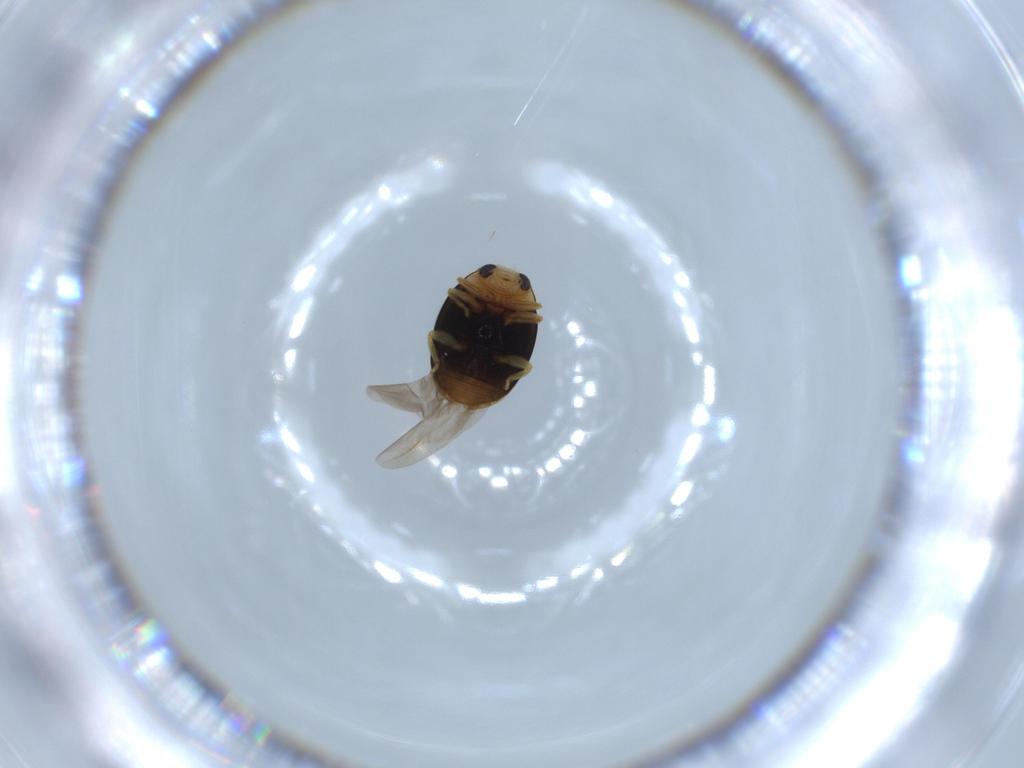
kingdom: Animalia
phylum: Arthropoda
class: Insecta
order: Coleoptera
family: Coccinellidae
